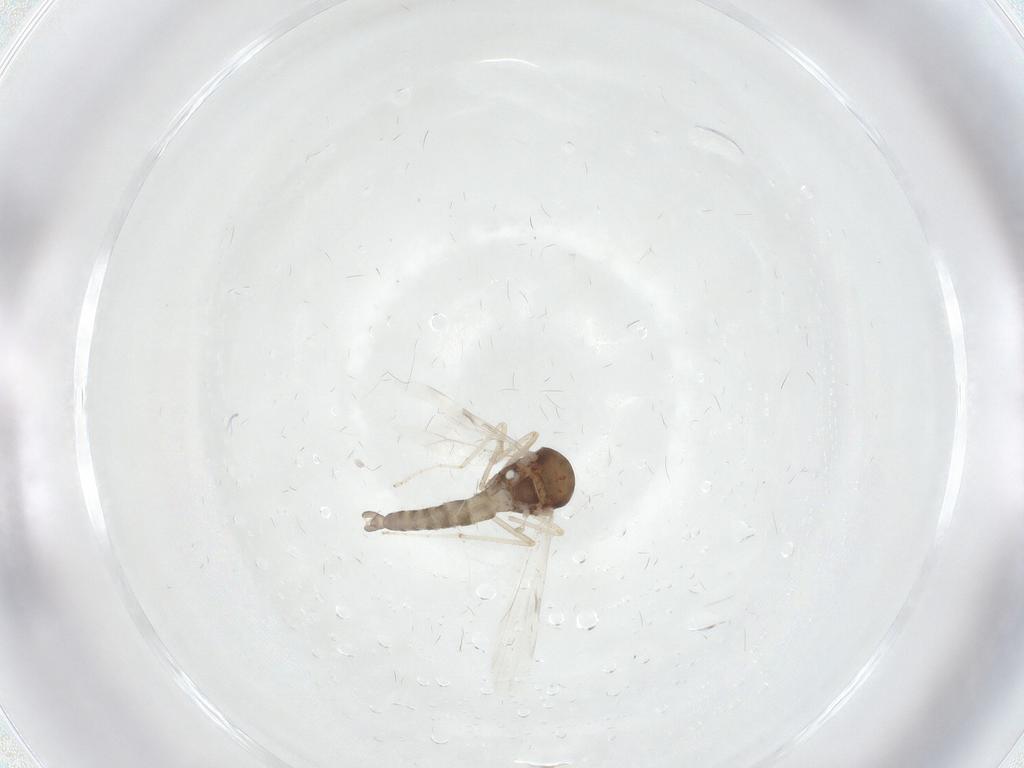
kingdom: Animalia
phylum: Arthropoda
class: Insecta
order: Diptera
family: Ceratopogonidae
